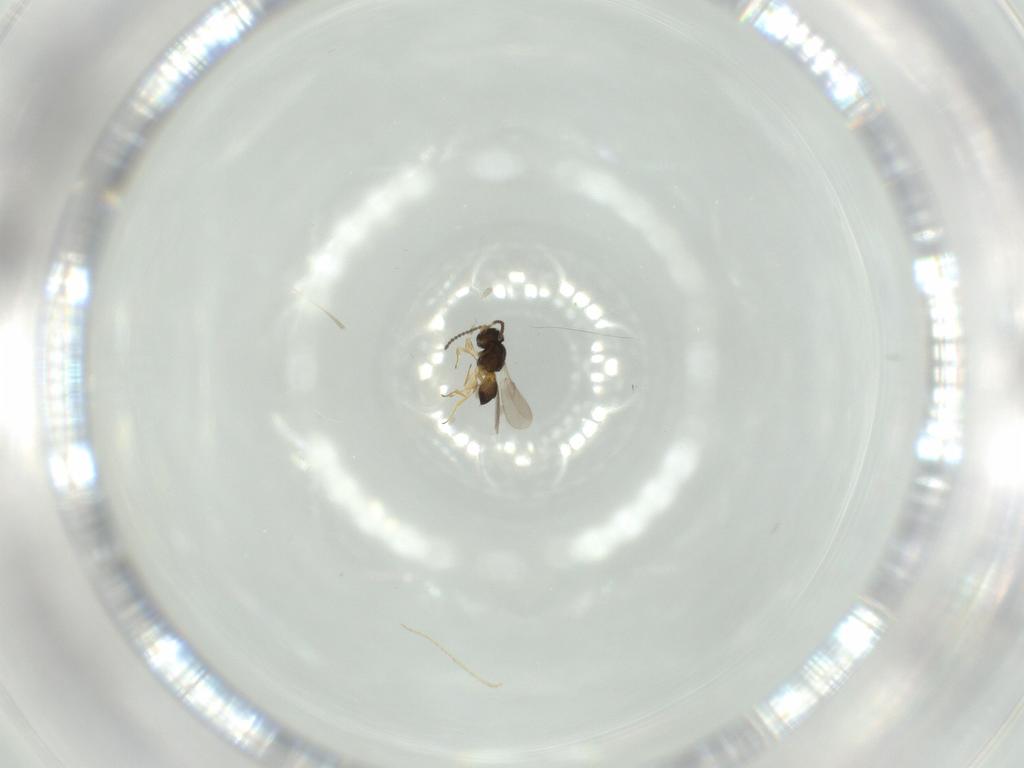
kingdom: Animalia
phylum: Arthropoda
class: Insecta
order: Hymenoptera
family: Scelionidae
